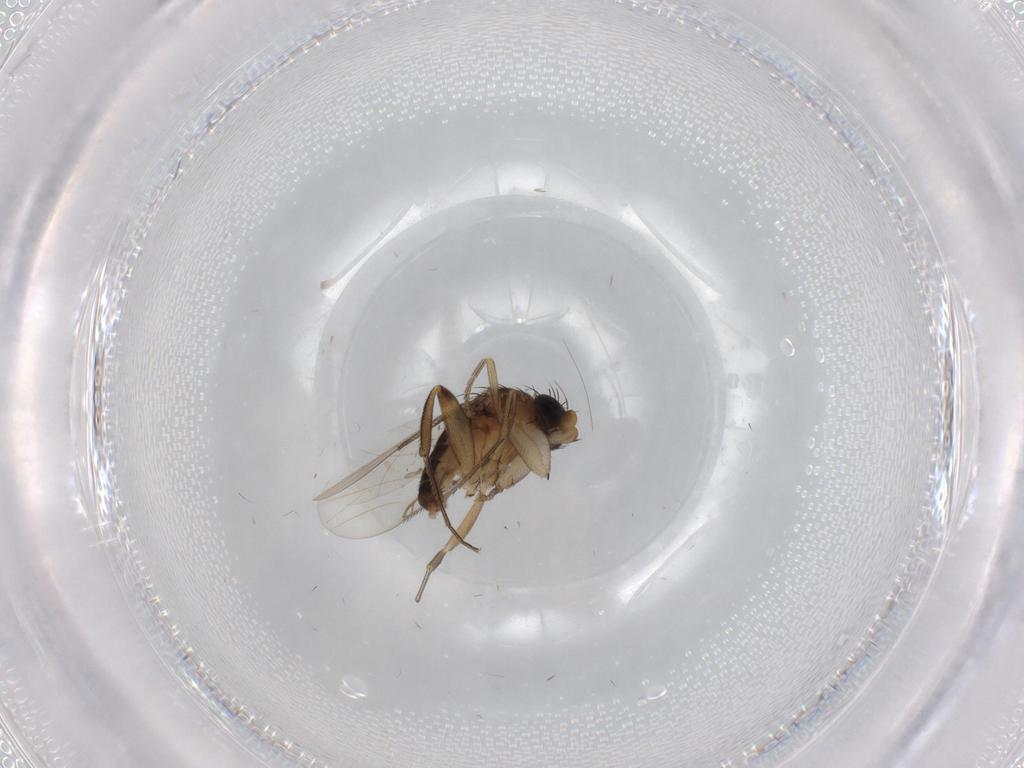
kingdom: Animalia
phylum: Arthropoda
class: Insecta
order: Diptera
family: Phoridae
